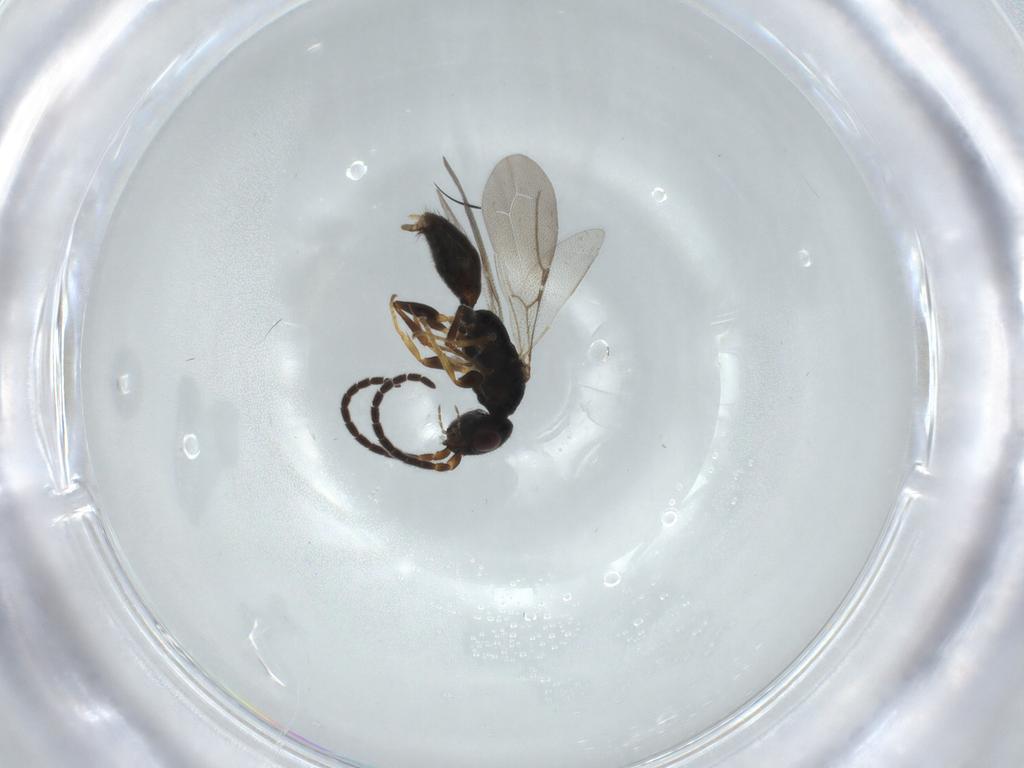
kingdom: Animalia
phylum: Arthropoda
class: Insecta
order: Hymenoptera
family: Bethylidae
